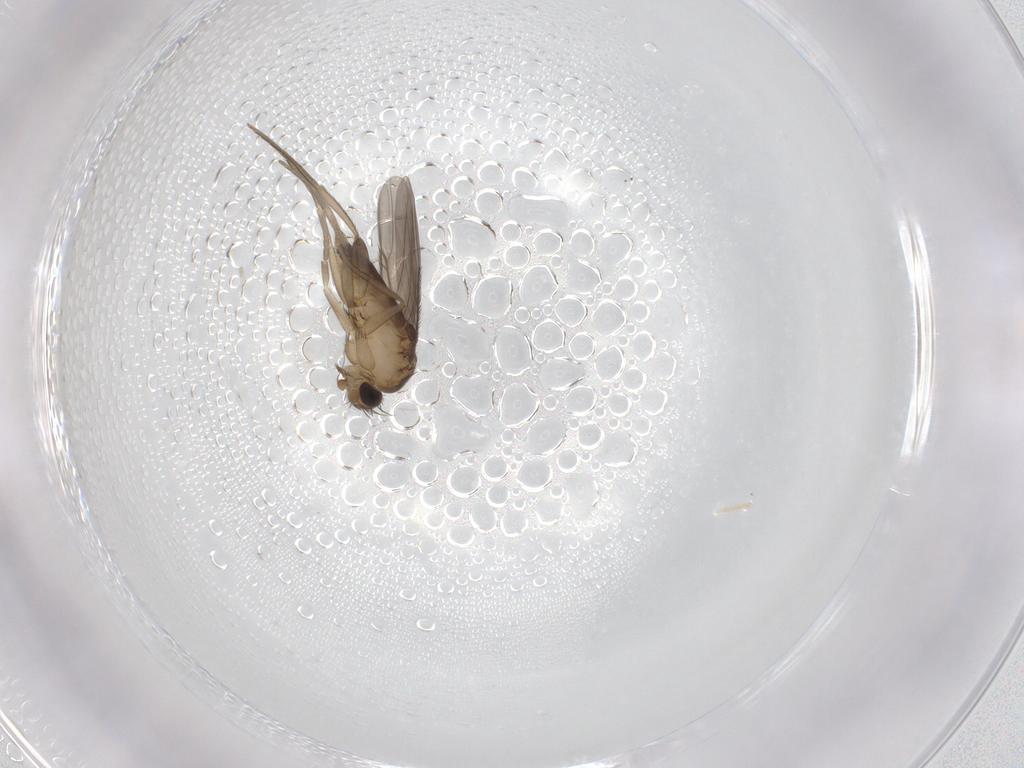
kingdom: Animalia
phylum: Arthropoda
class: Insecta
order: Diptera
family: Phoridae
